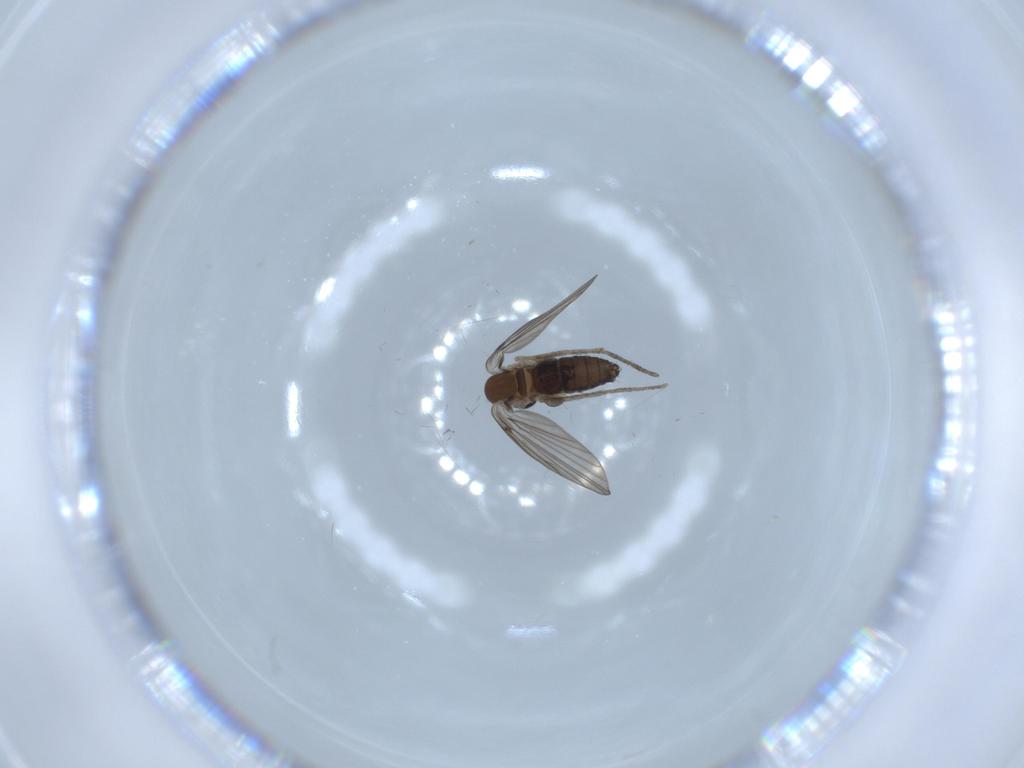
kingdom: Animalia
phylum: Arthropoda
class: Insecta
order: Diptera
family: Psychodidae
